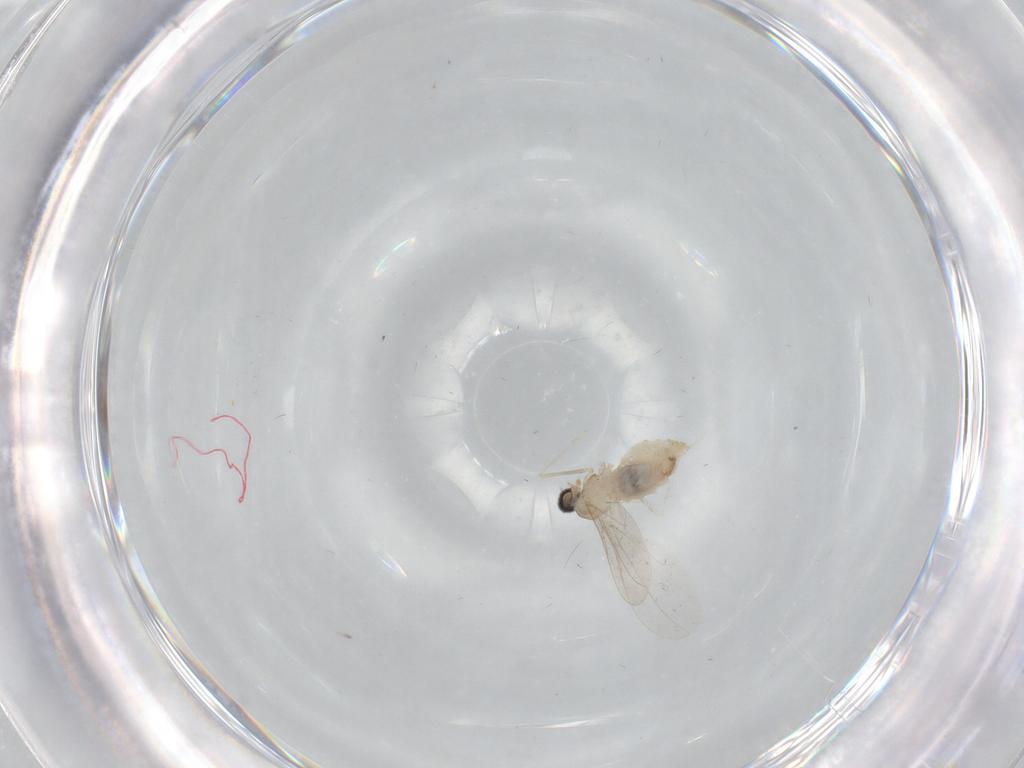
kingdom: Animalia
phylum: Arthropoda
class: Insecta
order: Diptera
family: Cecidomyiidae
